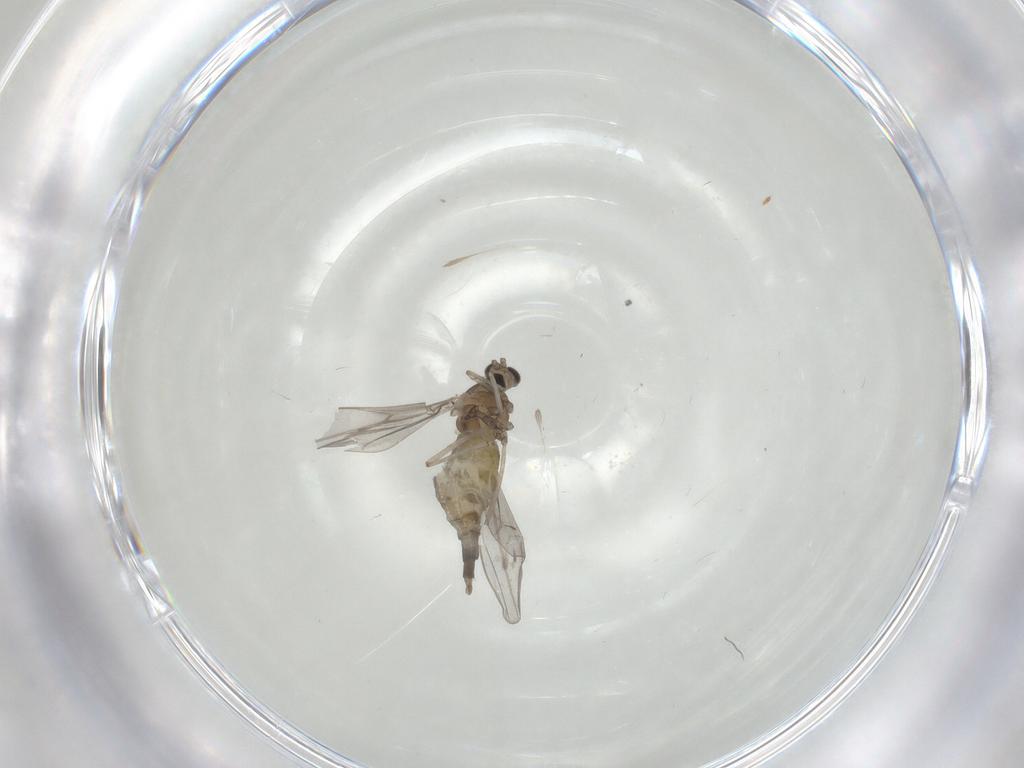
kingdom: Animalia
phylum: Arthropoda
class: Insecta
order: Diptera
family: Cecidomyiidae
